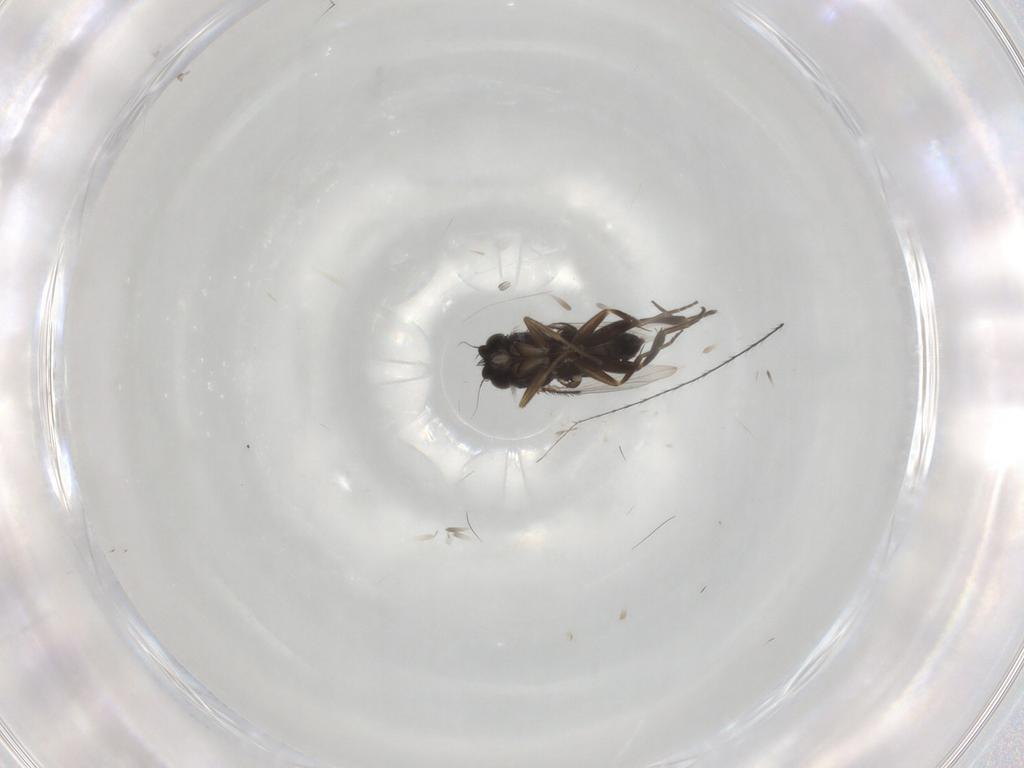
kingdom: Animalia
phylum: Arthropoda
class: Insecta
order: Diptera
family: Phoridae
